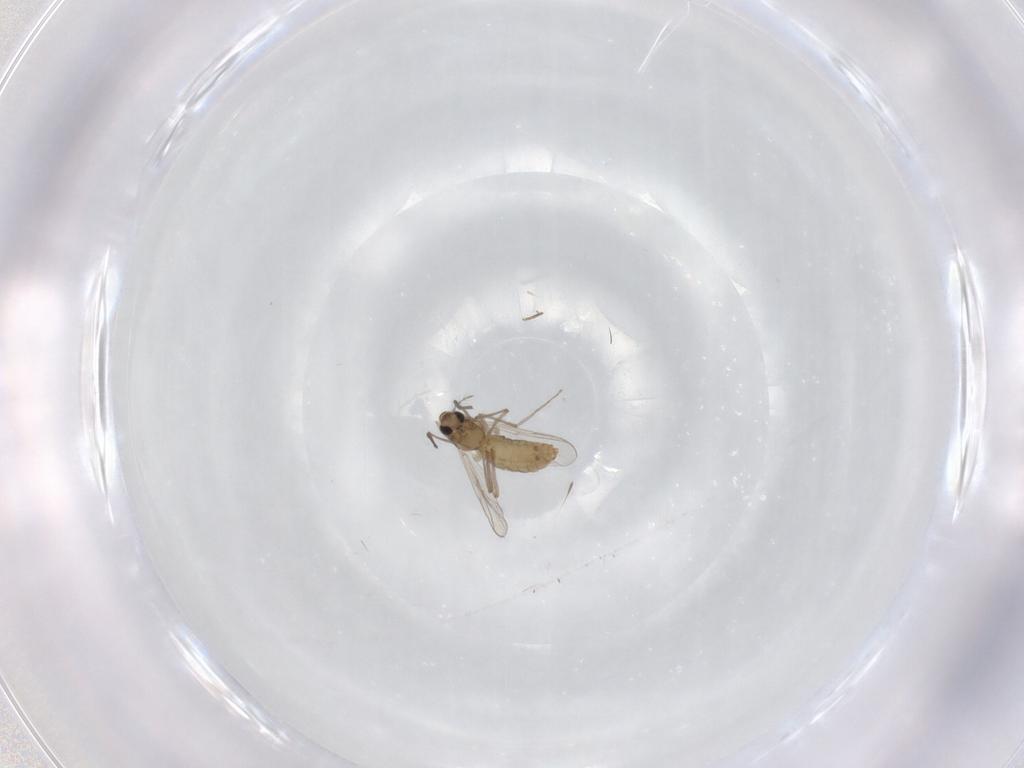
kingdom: Animalia
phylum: Arthropoda
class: Insecta
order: Diptera
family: Chironomidae
